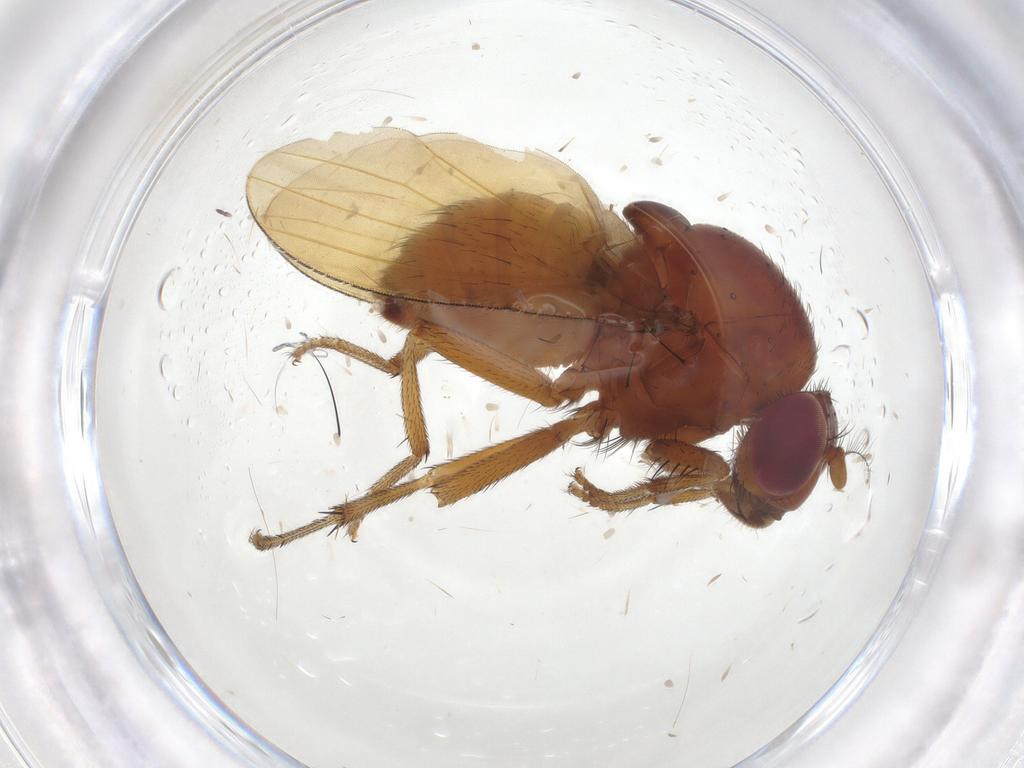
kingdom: Animalia
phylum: Arthropoda
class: Insecta
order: Diptera
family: Lauxaniidae
